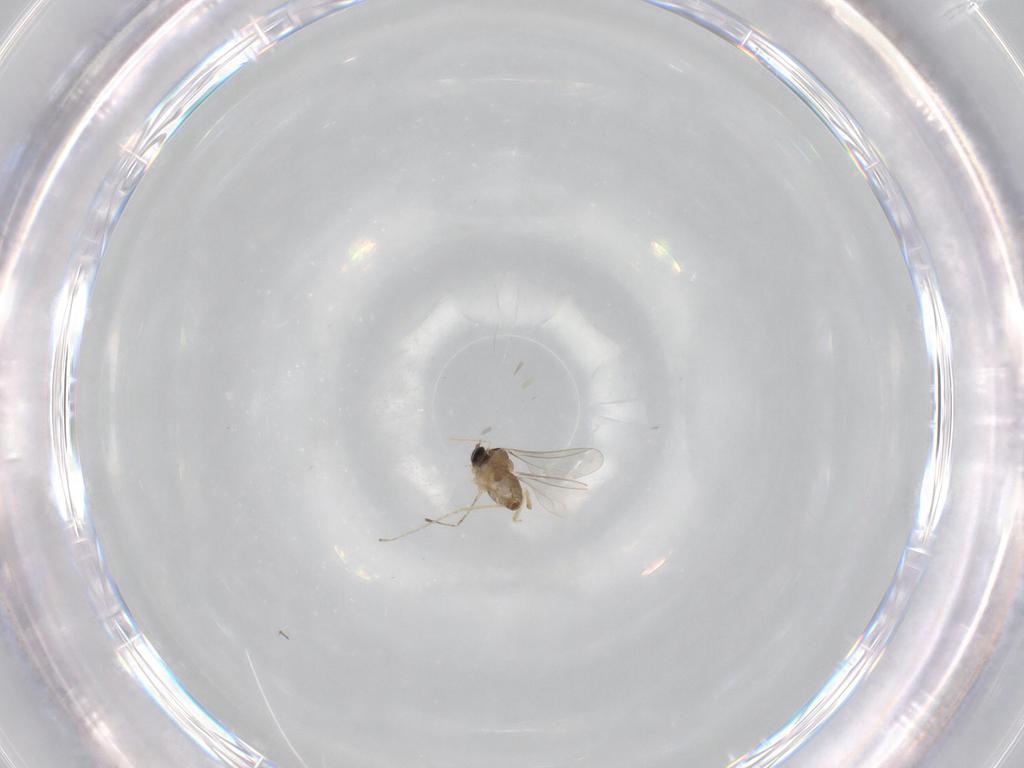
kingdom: Animalia
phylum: Arthropoda
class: Insecta
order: Diptera
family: Cecidomyiidae
